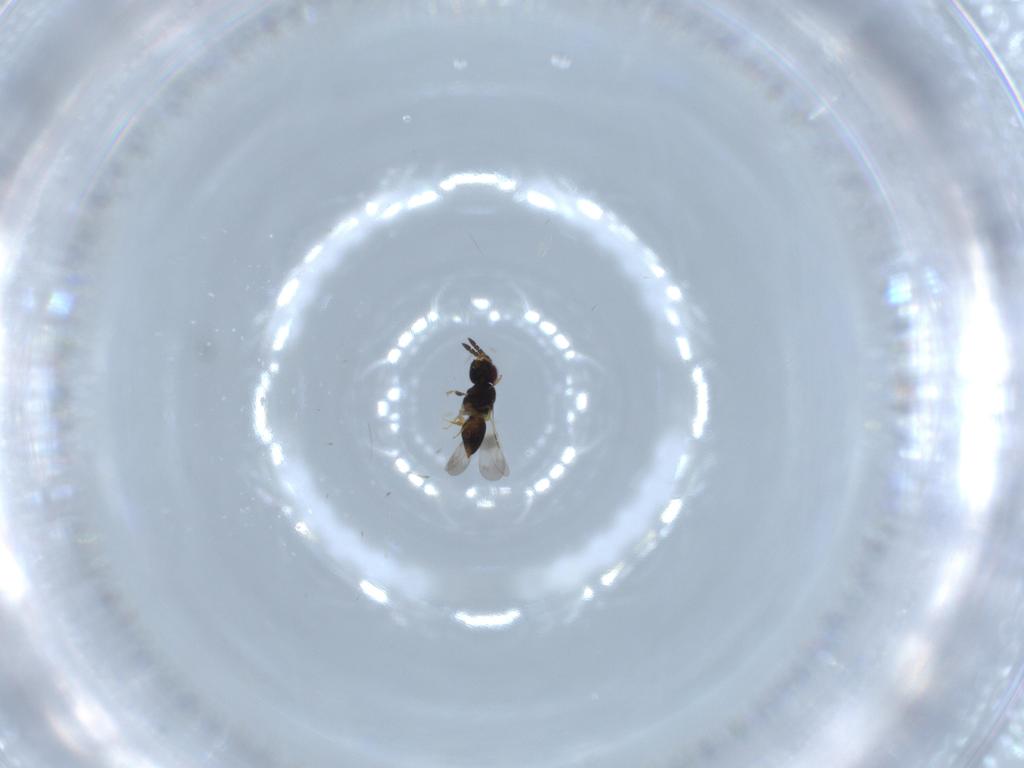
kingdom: Animalia
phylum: Arthropoda
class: Insecta
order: Hymenoptera
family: Tiphiidae
